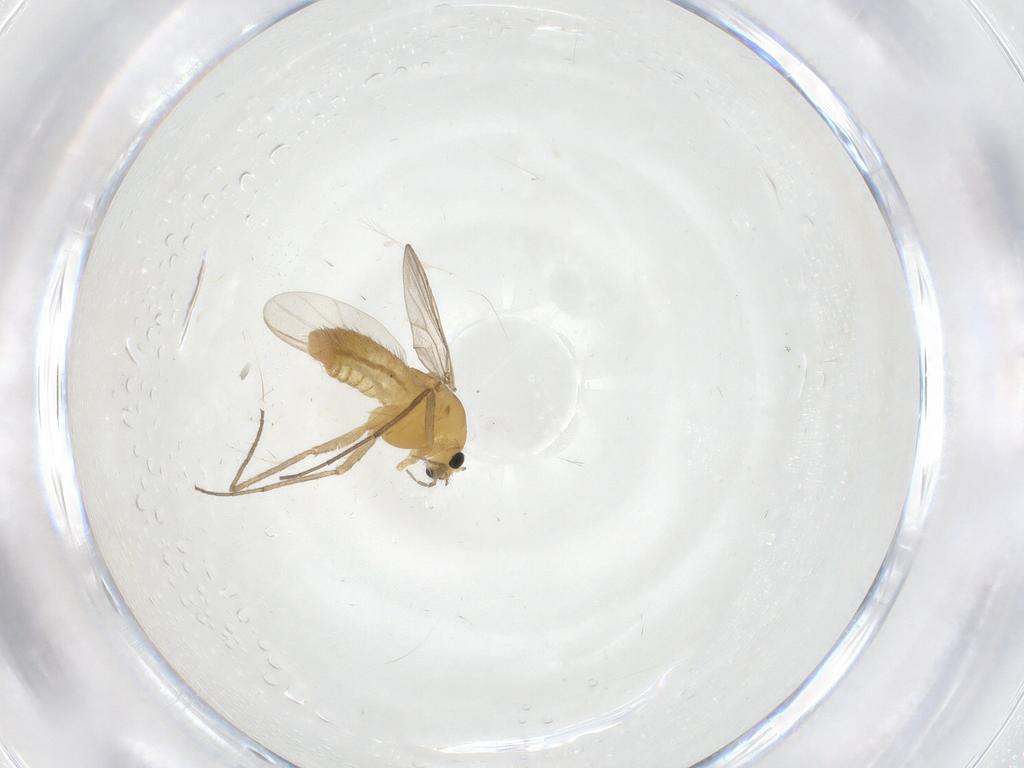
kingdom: Animalia
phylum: Arthropoda
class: Insecta
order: Diptera
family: Chironomidae
